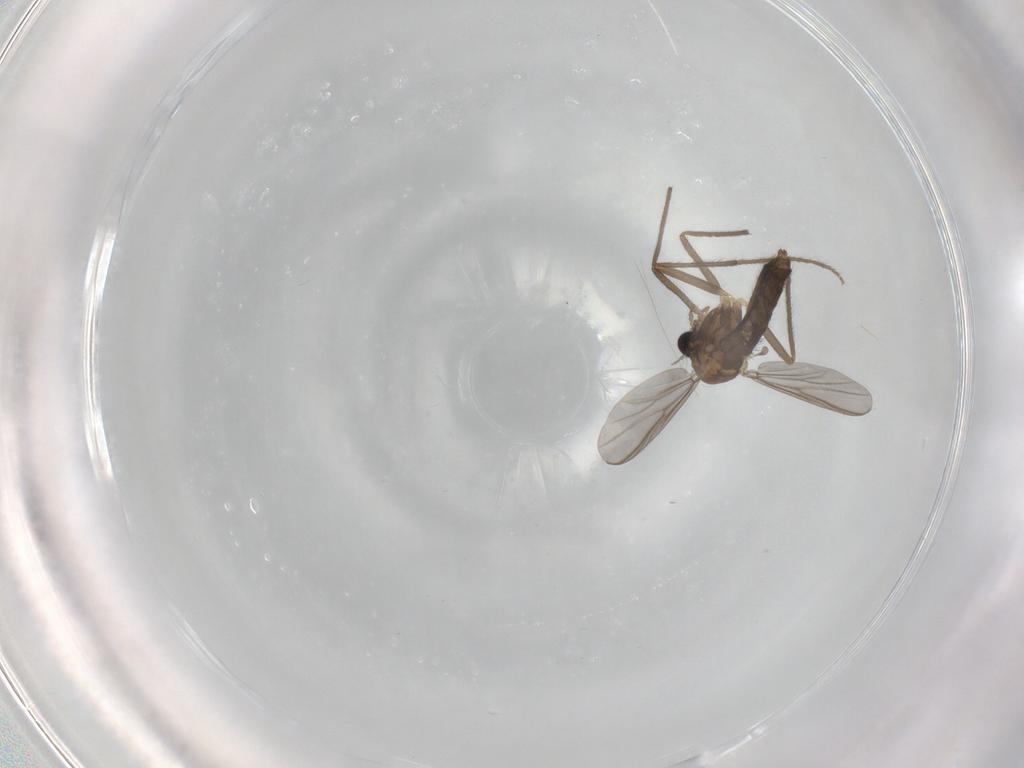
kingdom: Animalia
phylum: Arthropoda
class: Insecta
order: Diptera
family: Chironomidae
